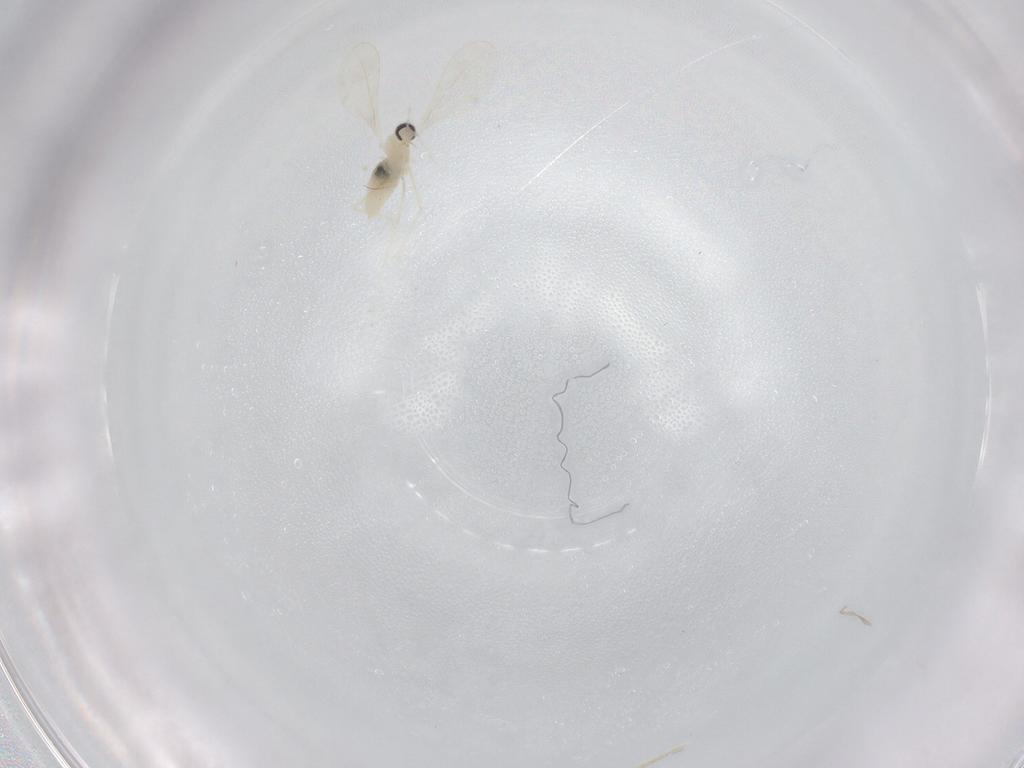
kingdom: Animalia
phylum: Arthropoda
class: Insecta
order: Diptera
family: Cecidomyiidae
